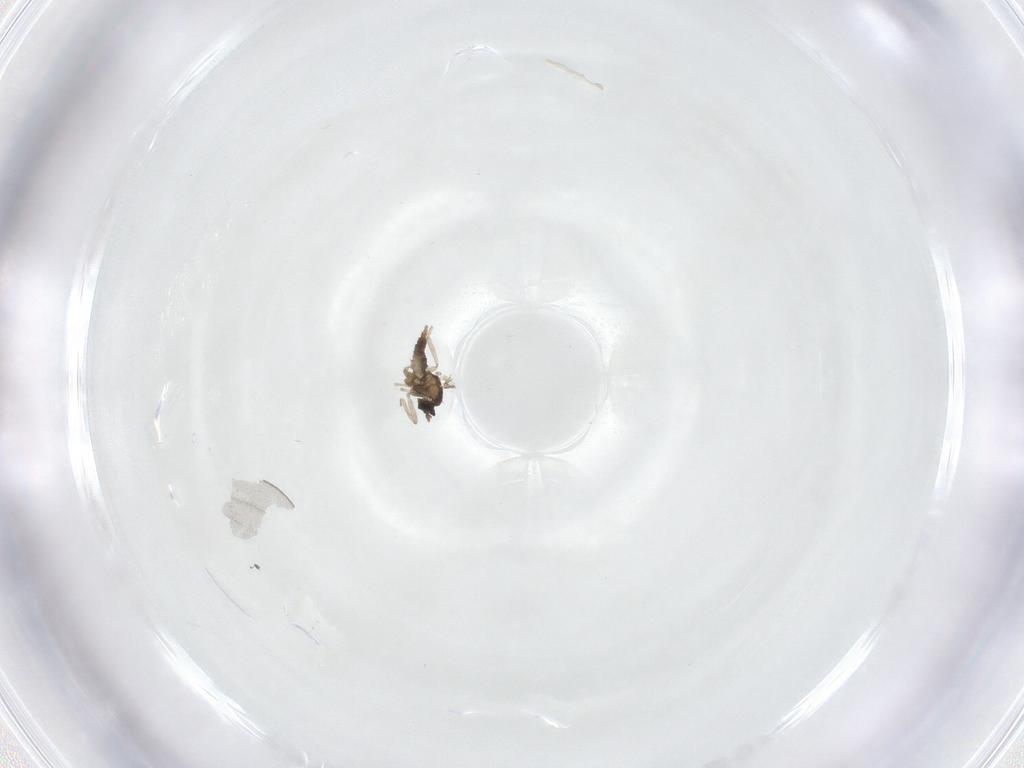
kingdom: Animalia
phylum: Arthropoda
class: Insecta
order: Diptera
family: Cecidomyiidae
